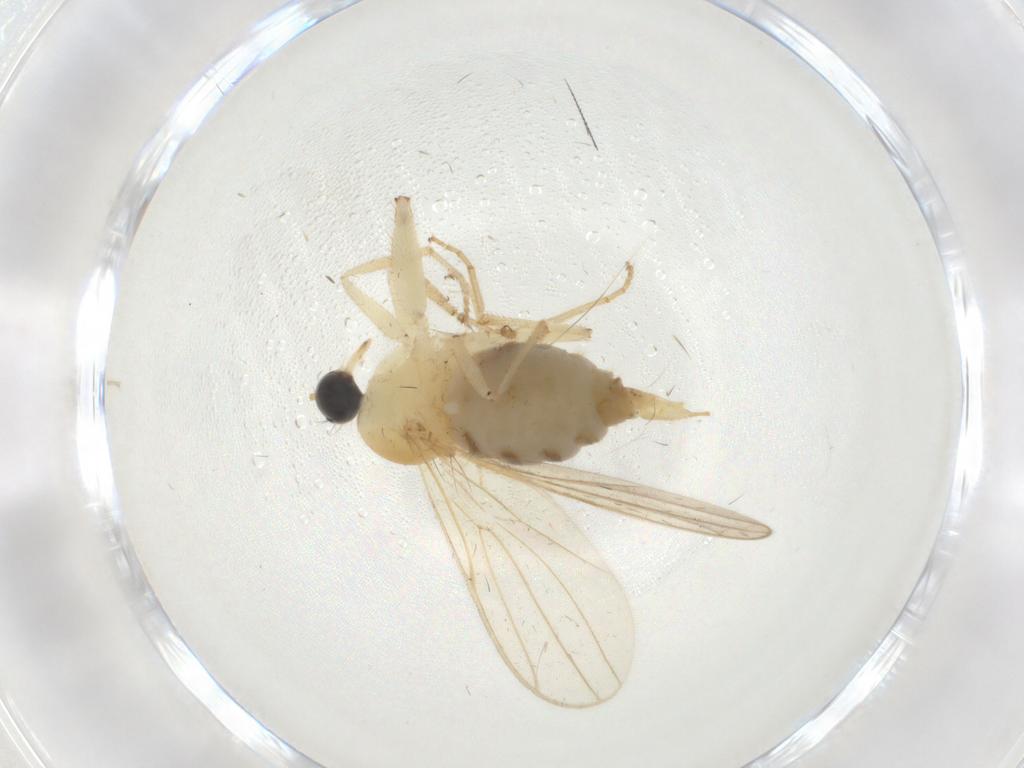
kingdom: Animalia
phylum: Arthropoda
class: Insecta
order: Diptera
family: Hybotidae
